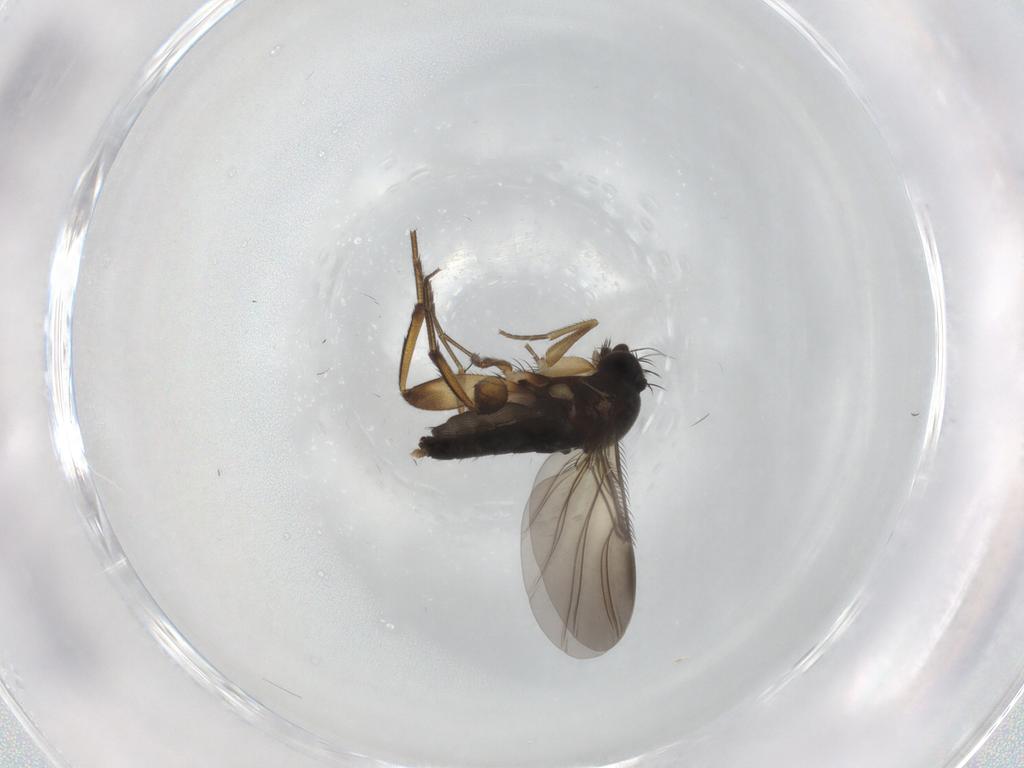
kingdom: Animalia
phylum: Arthropoda
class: Insecta
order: Diptera
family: Phoridae
